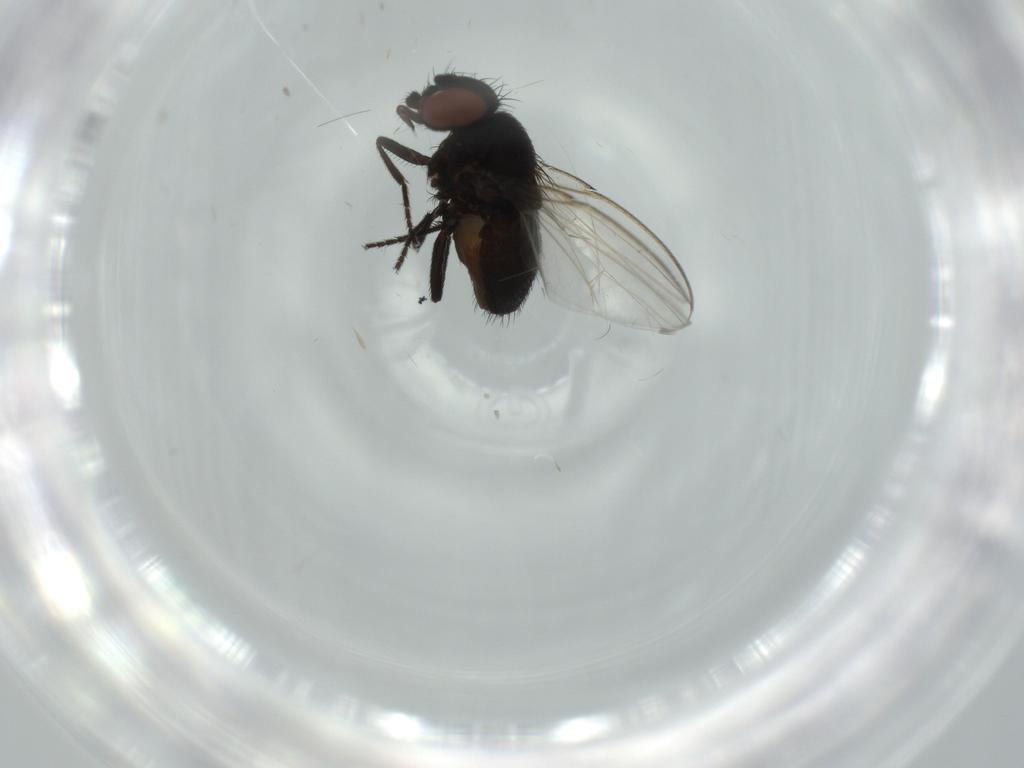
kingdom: Animalia
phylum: Arthropoda
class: Insecta
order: Diptera
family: Milichiidae
